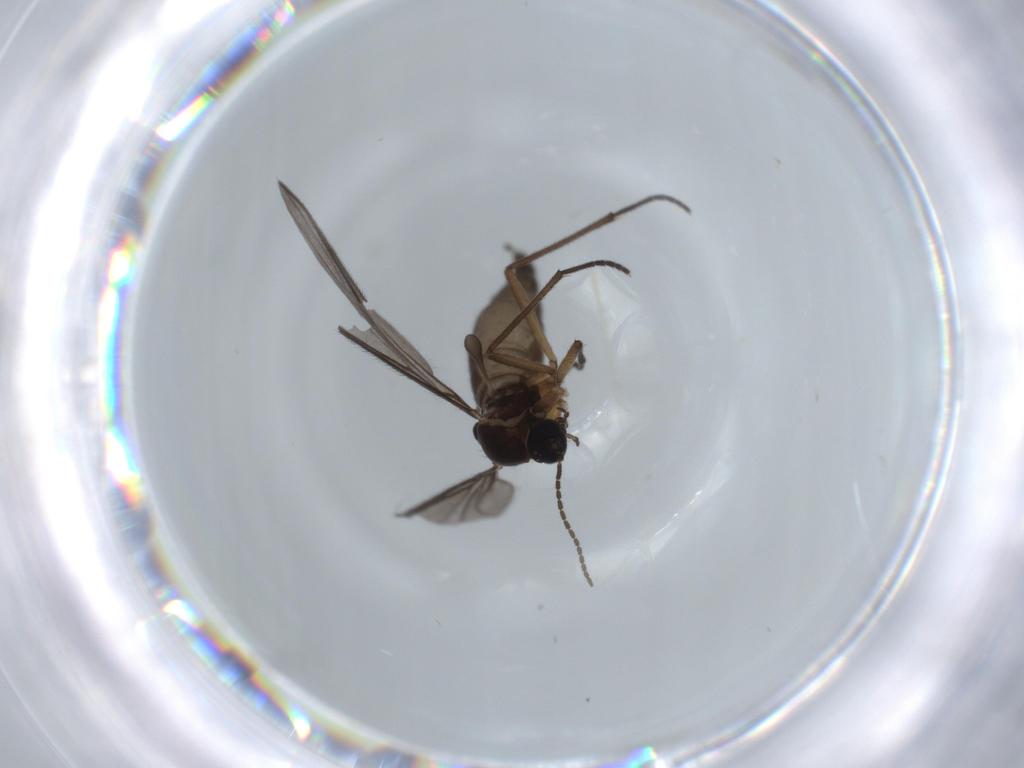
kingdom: Animalia
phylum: Arthropoda
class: Insecta
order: Diptera
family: Sciaridae
